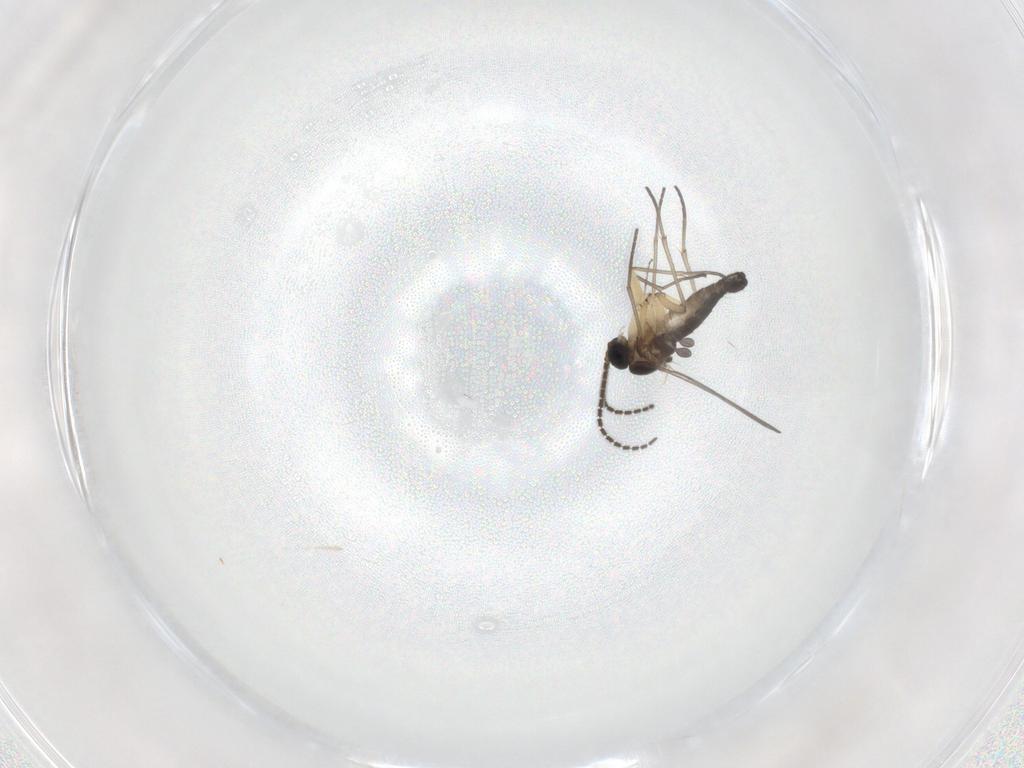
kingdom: Animalia
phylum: Arthropoda
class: Insecta
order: Diptera
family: Cecidomyiidae
